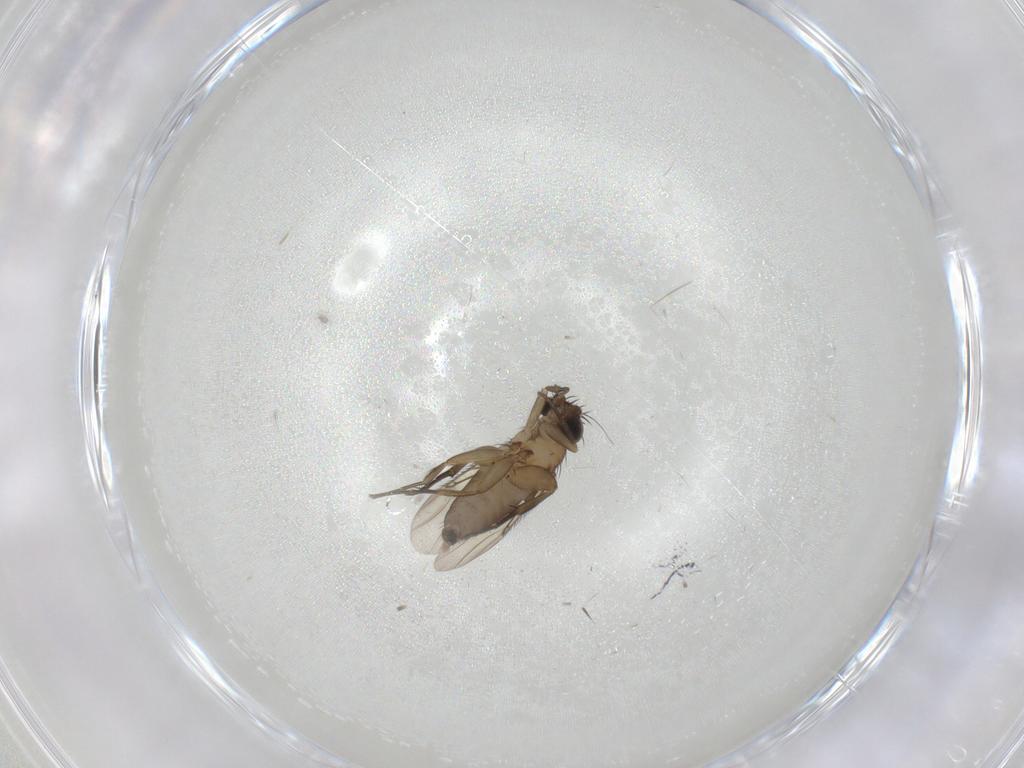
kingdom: Animalia
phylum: Arthropoda
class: Insecta
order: Diptera
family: Phoridae
